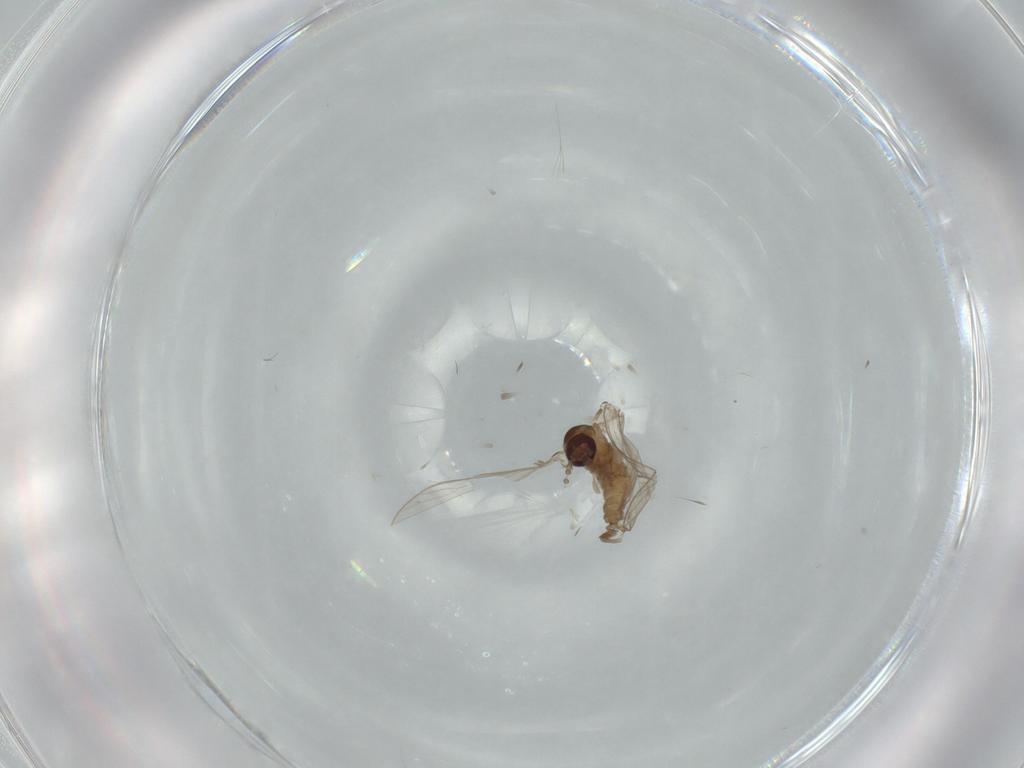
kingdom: Animalia
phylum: Arthropoda
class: Insecta
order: Diptera
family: Psychodidae
